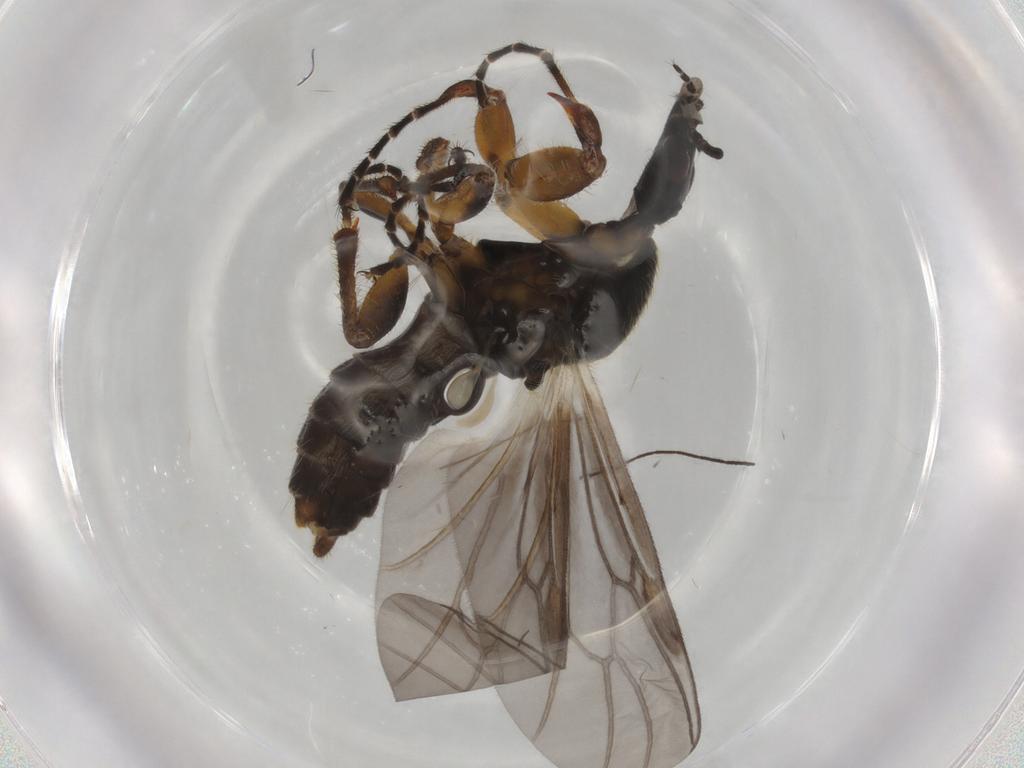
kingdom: Animalia
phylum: Arthropoda
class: Insecta
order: Diptera
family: Bibionidae
